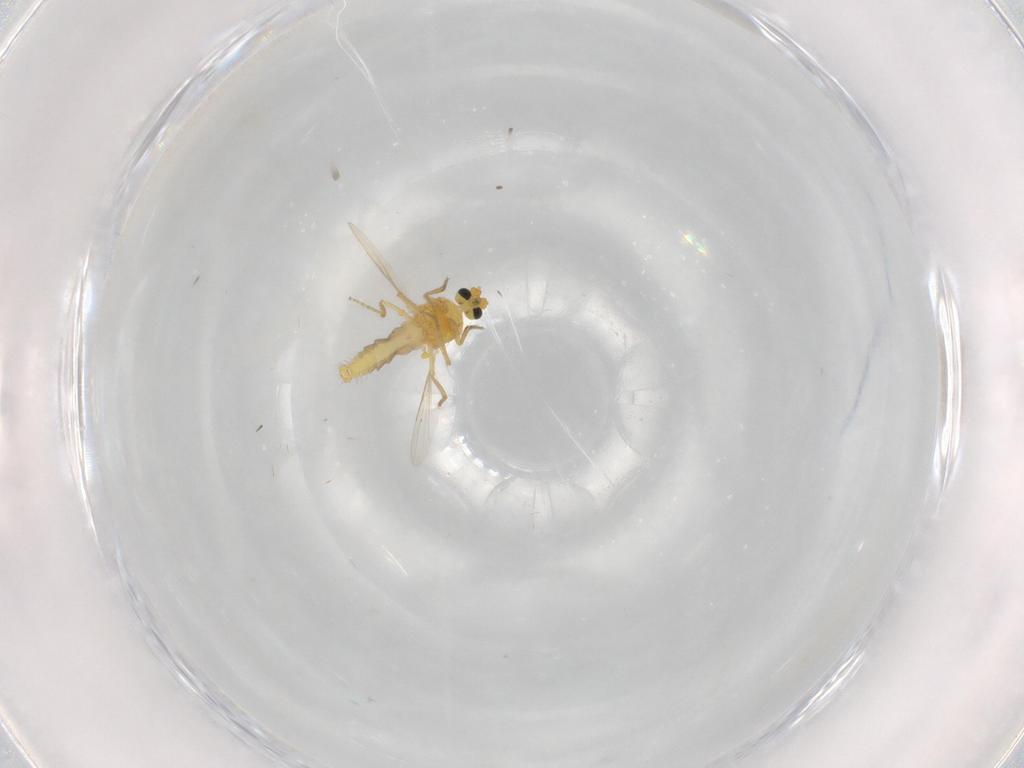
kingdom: Animalia
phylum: Arthropoda
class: Insecta
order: Diptera
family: Ceratopogonidae
